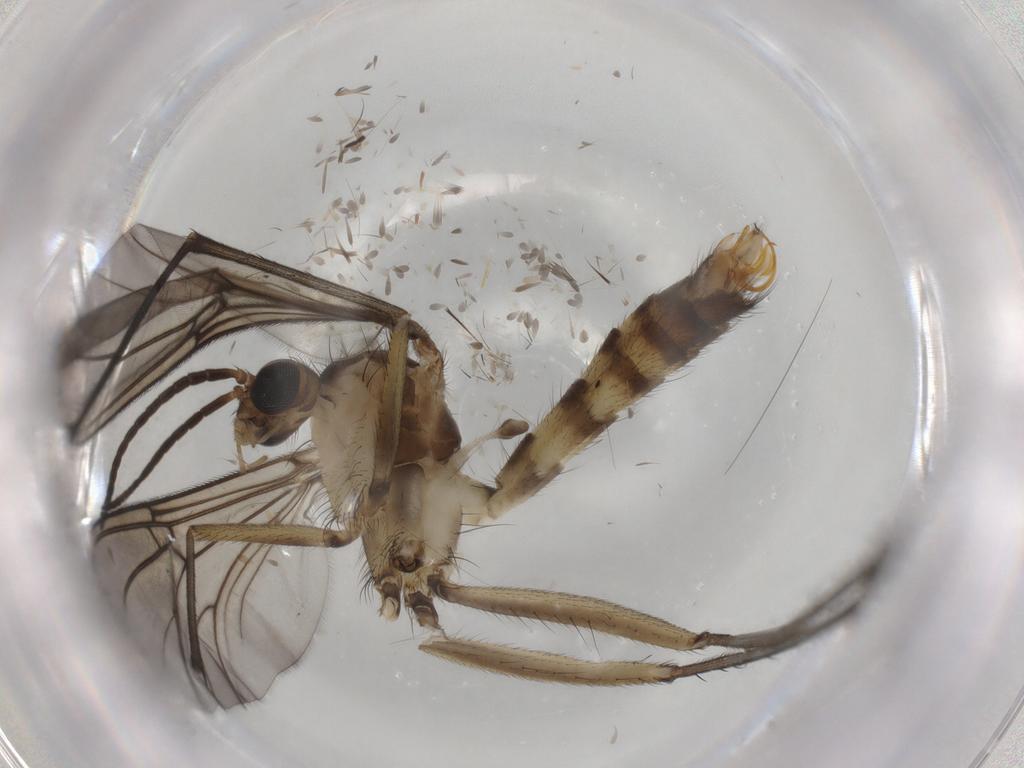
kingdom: Animalia
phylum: Arthropoda
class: Insecta
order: Diptera
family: Mycetophilidae
